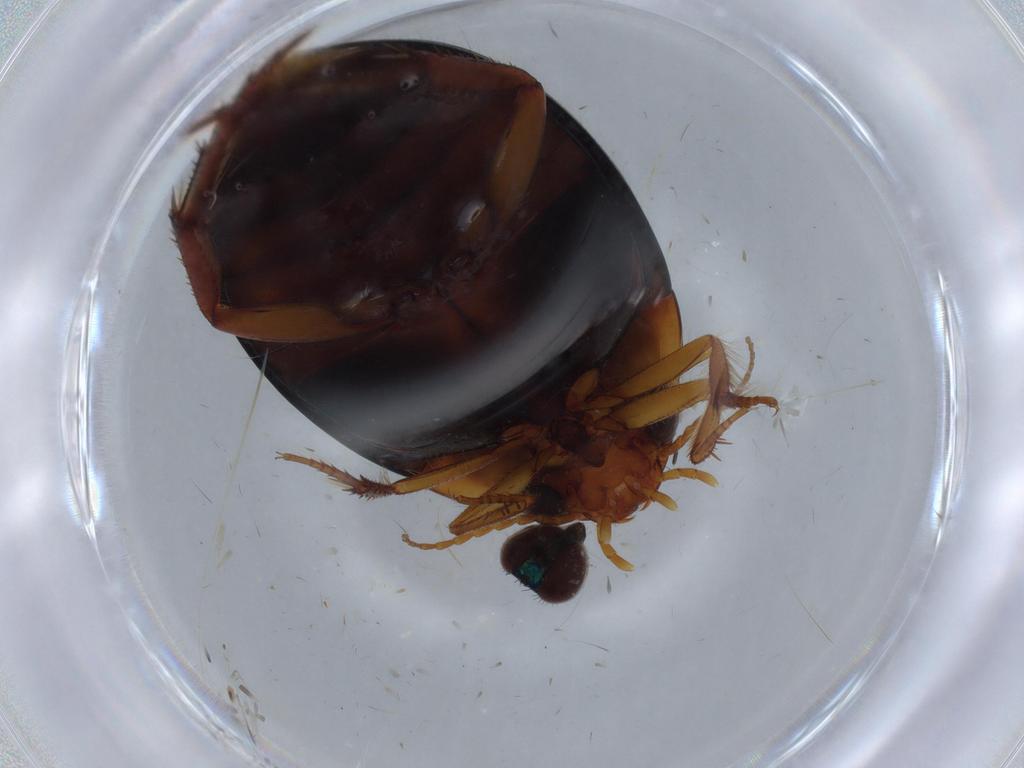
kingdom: Animalia
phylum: Arthropoda
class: Insecta
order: Coleoptera
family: Dytiscidae
